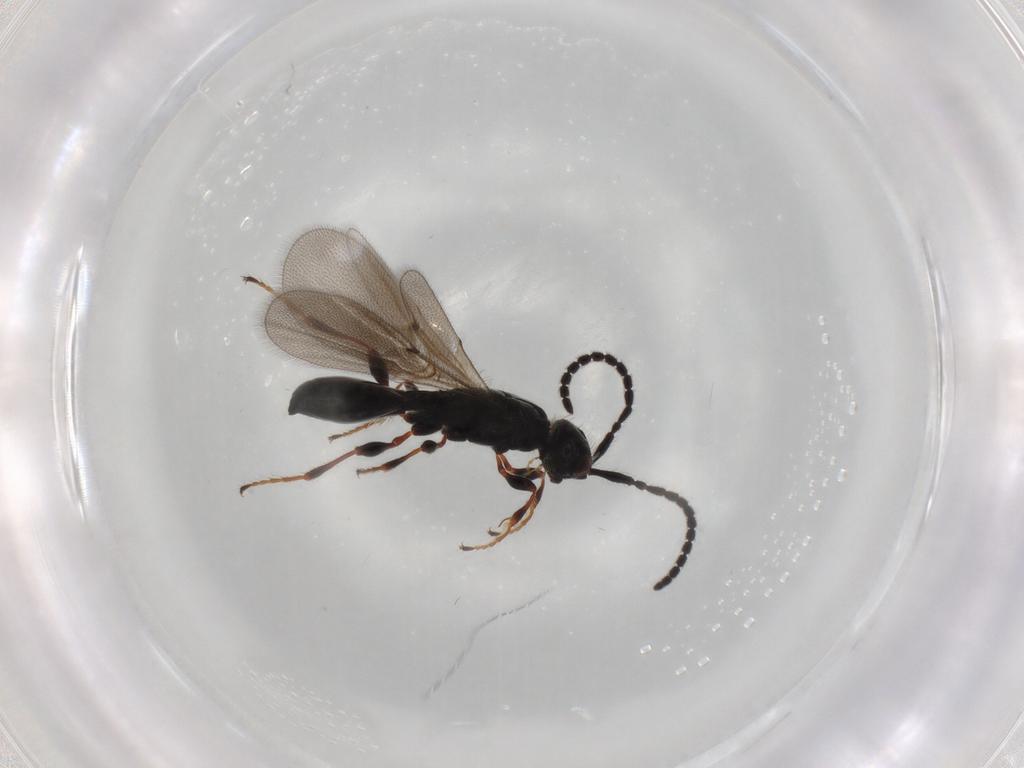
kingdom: Animalia
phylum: Arthropoda
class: Insecta
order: Hymenoptera
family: Diapriidae
